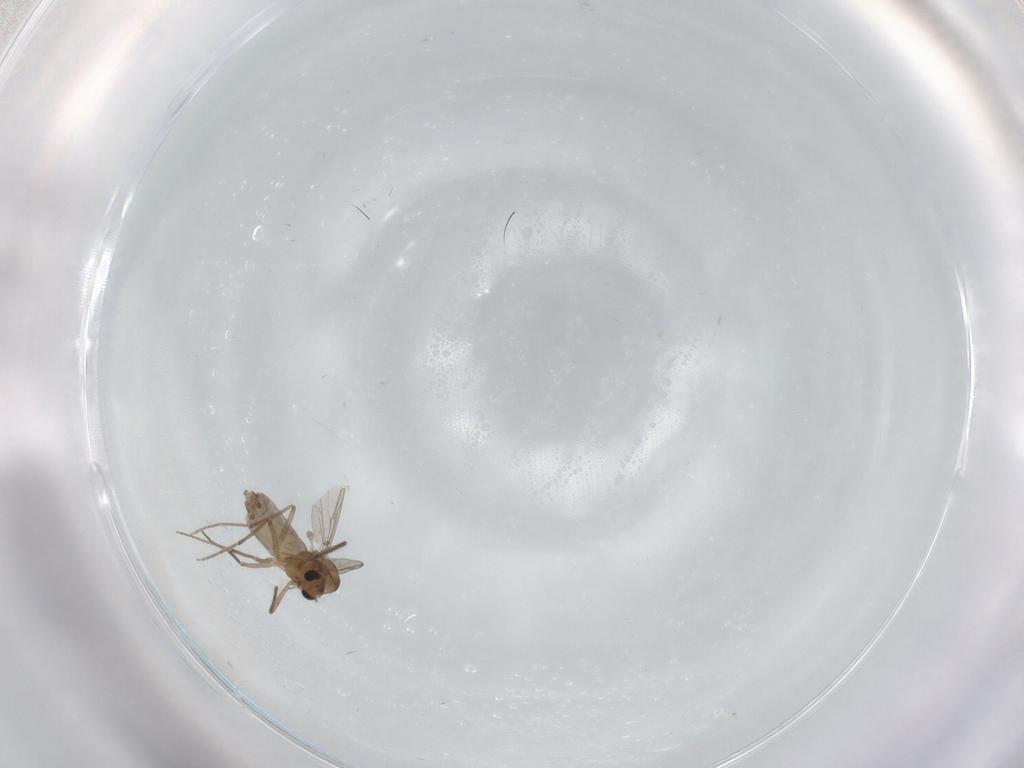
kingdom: Animalia
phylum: Arthropoda
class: Insecta
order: Diptera
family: Chironomidae
